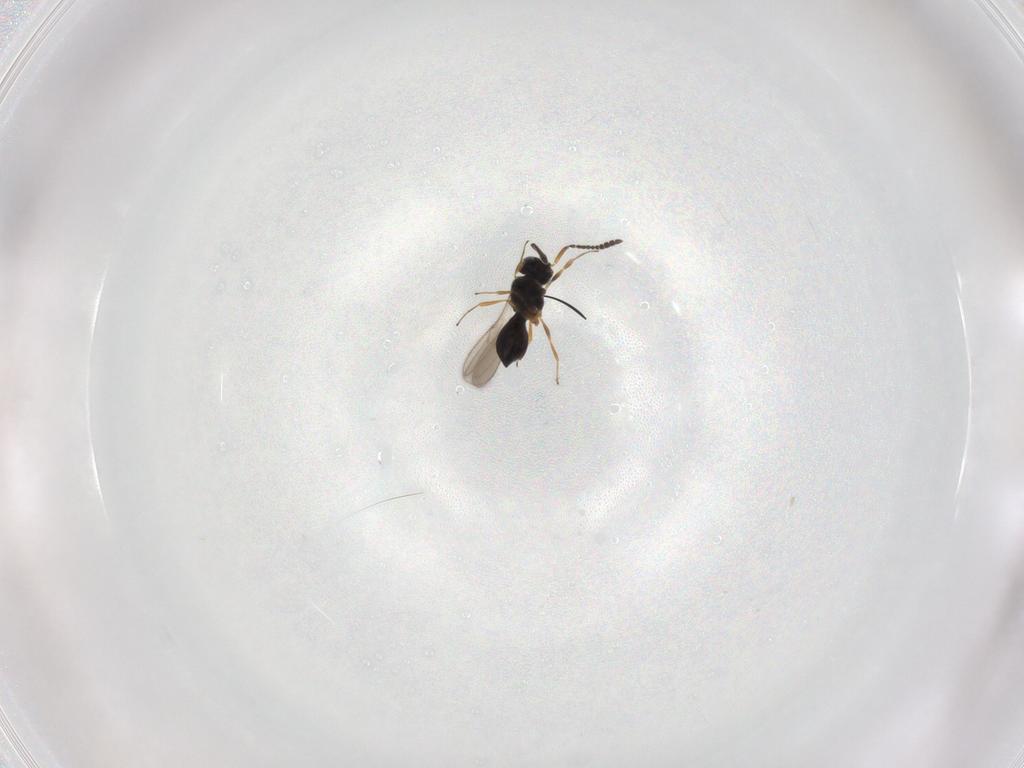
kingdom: Animalia
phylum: Arthropoda
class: Insecta
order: Hymenoptera
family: Scelionidae
